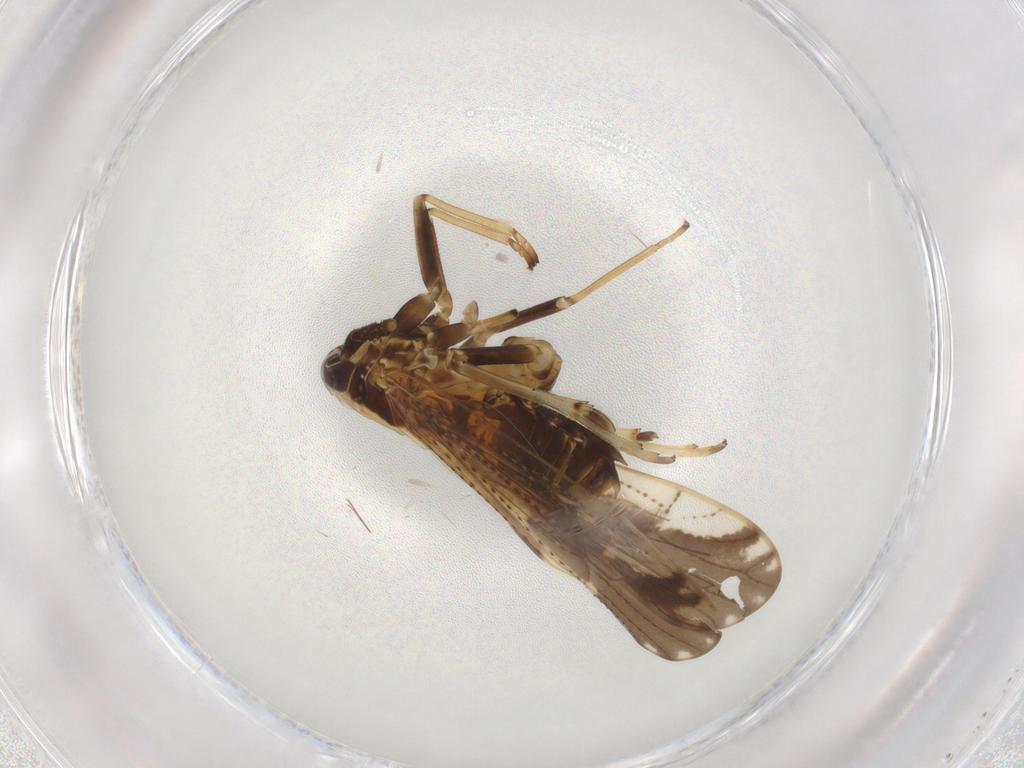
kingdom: Animalia
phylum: Arthropoda
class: Insecta
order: Hemiptera
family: Delphacidae
